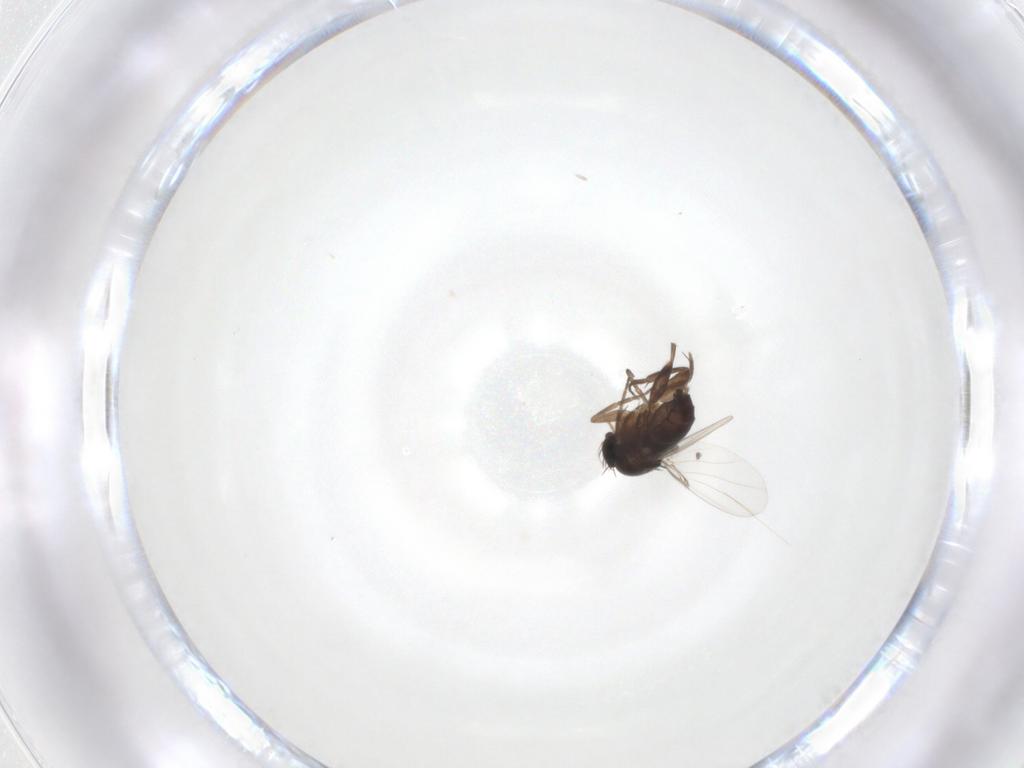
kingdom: Animalia
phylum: Arthropoda
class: Insecta
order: Diptera
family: Phoridae
